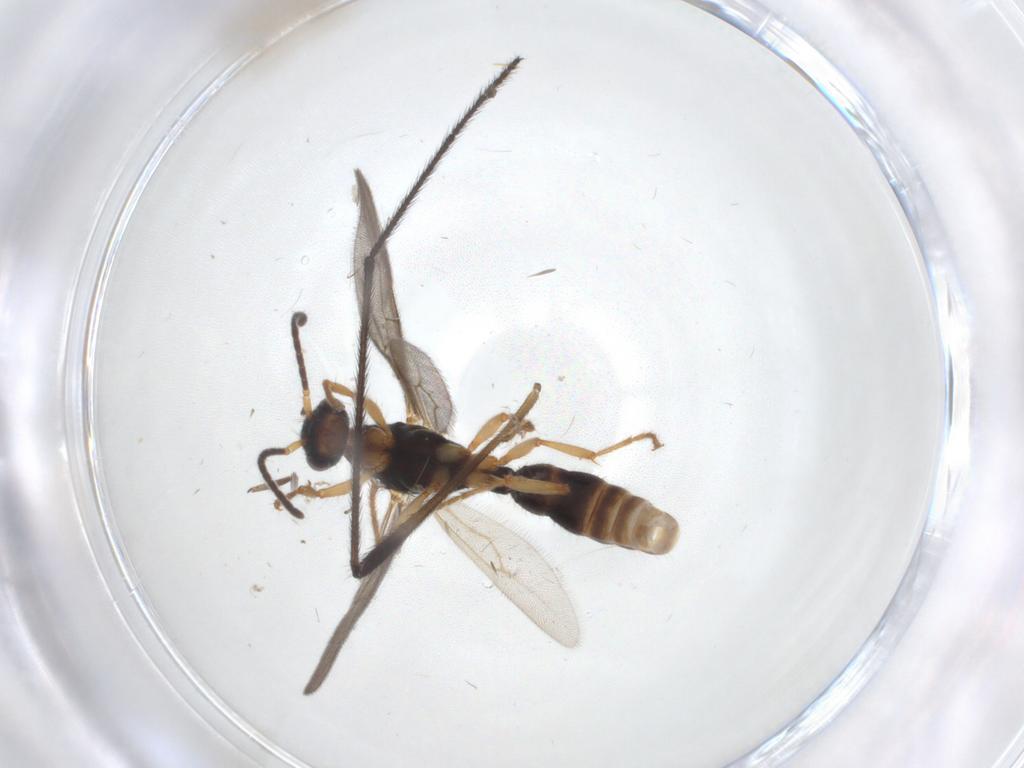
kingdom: Animalia
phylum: Arthropoda
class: Insecta
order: Hymenoptera
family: Formicidae
